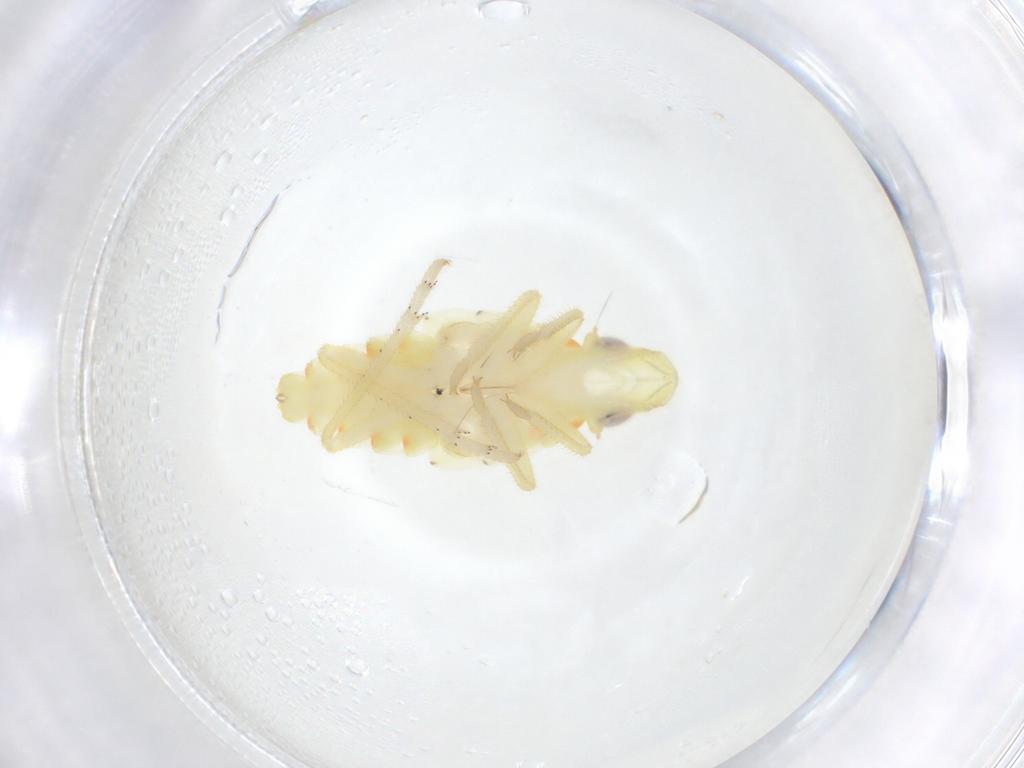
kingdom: Animalia
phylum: Arthropoda
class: Insecta
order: Hemiptera
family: Tropiduchidae
